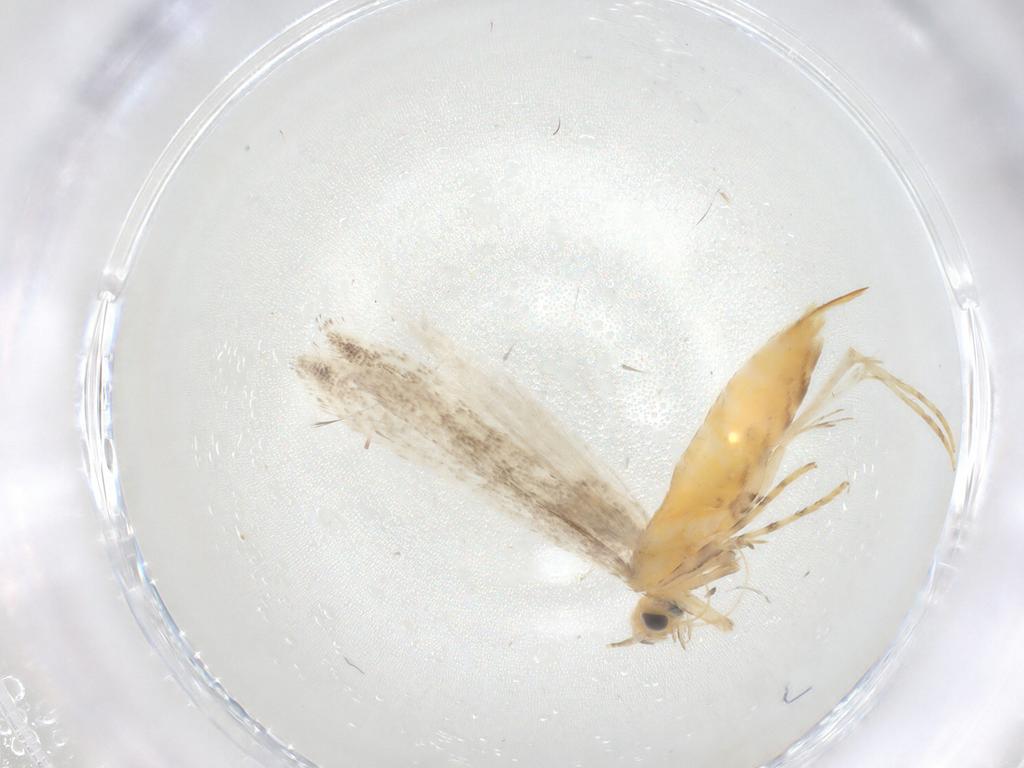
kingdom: Animalia
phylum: Arthropoda
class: Insecta
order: Lepidoptera
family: Gracillariidae
